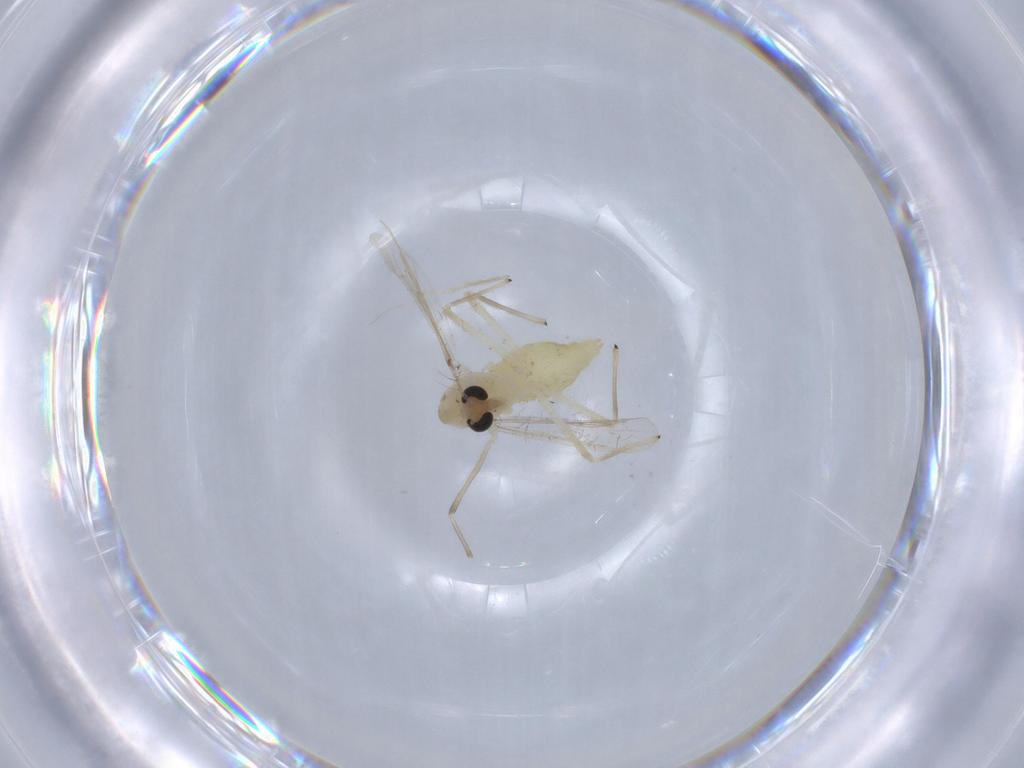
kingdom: Animalia
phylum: Arthropoda
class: Insecta
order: Diptera
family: Chironomidae
